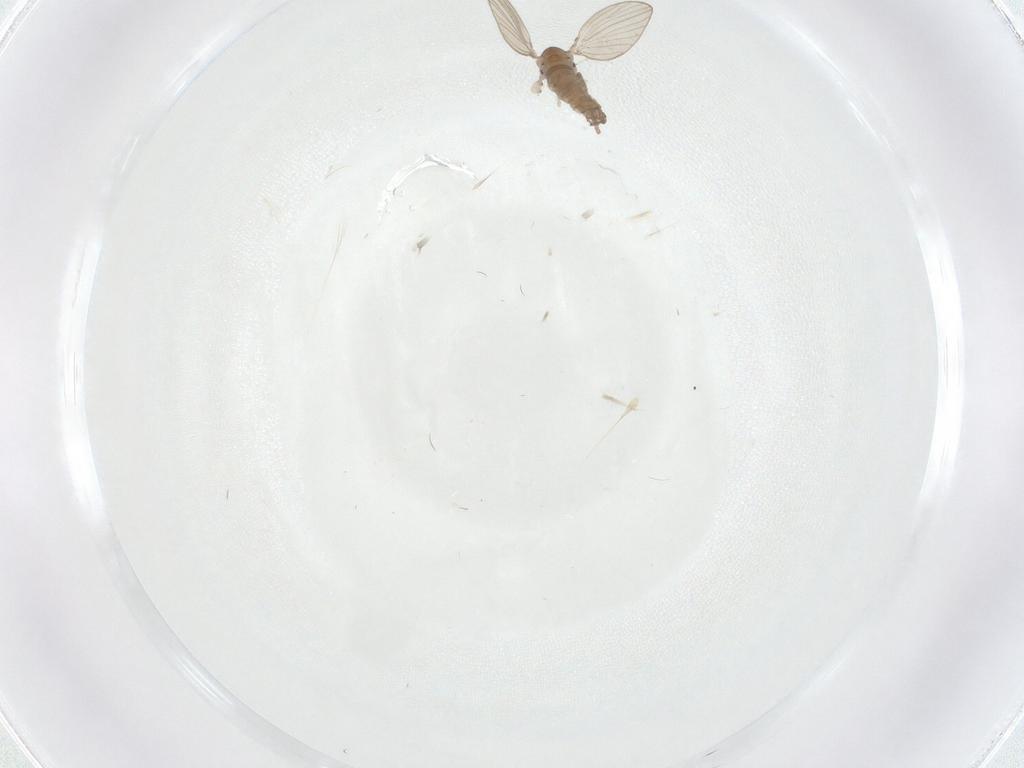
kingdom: Animalia
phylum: Arthropoda
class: Insecta
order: Diptera
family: Psychodidae
